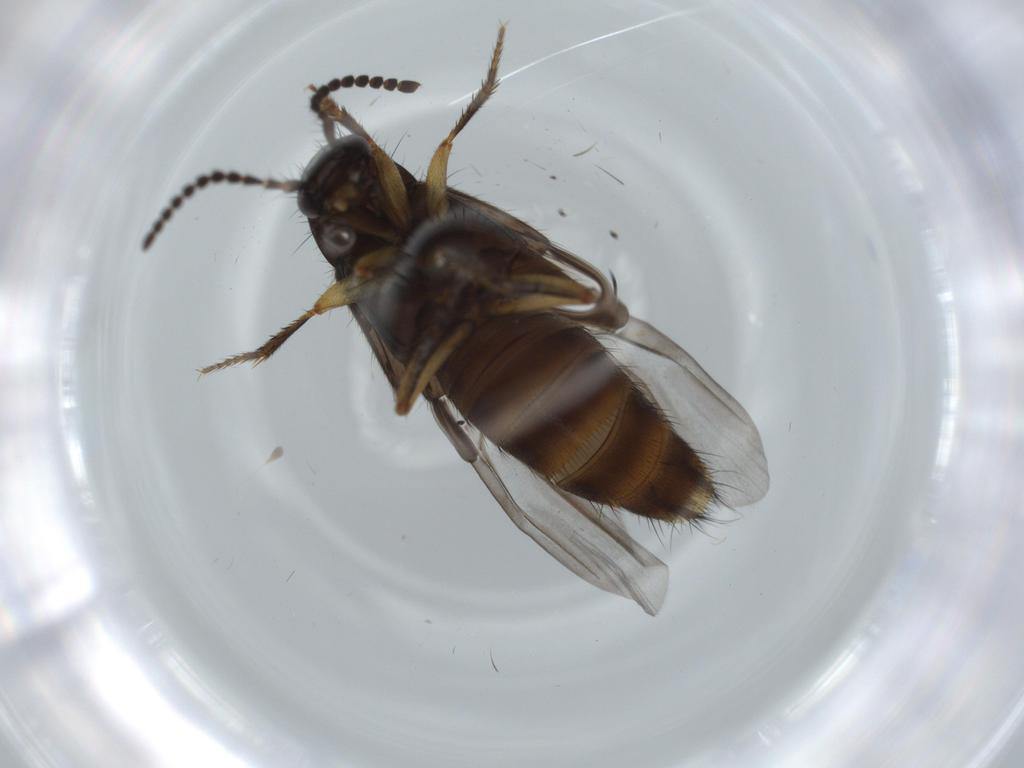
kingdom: Animalia
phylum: Arthropoda
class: Insecta
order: Coleoptera
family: Staphylinidae
